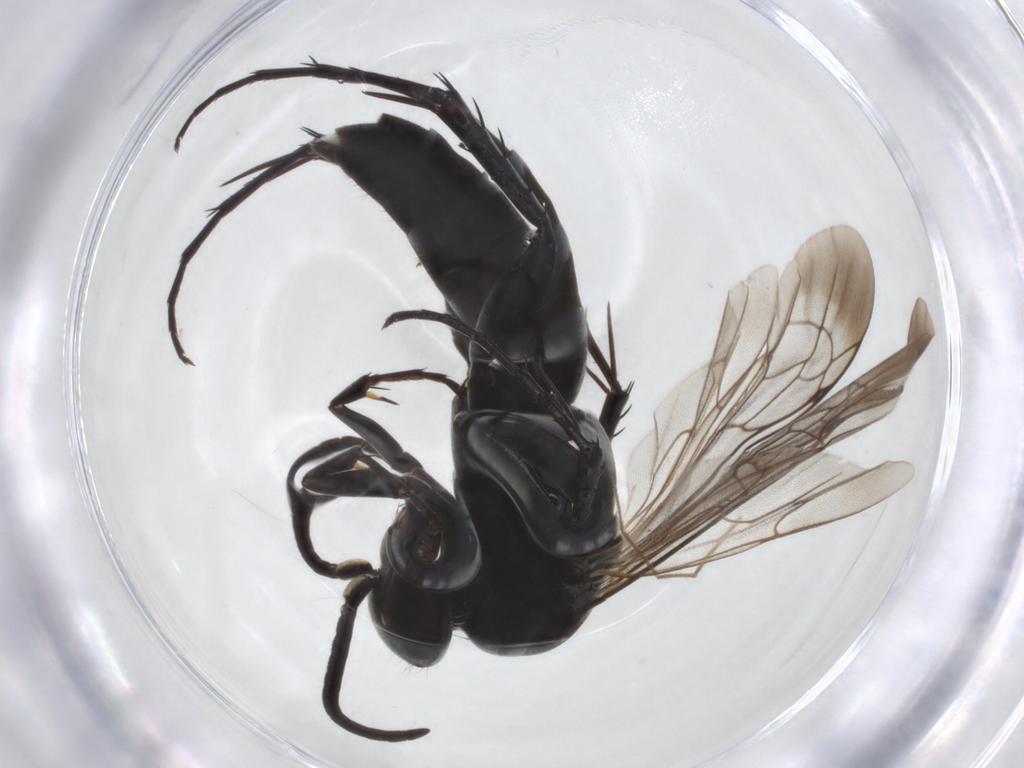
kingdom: Animalia
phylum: Arthropoda
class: Insecta
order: Hymenoptera
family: Pompilidae
